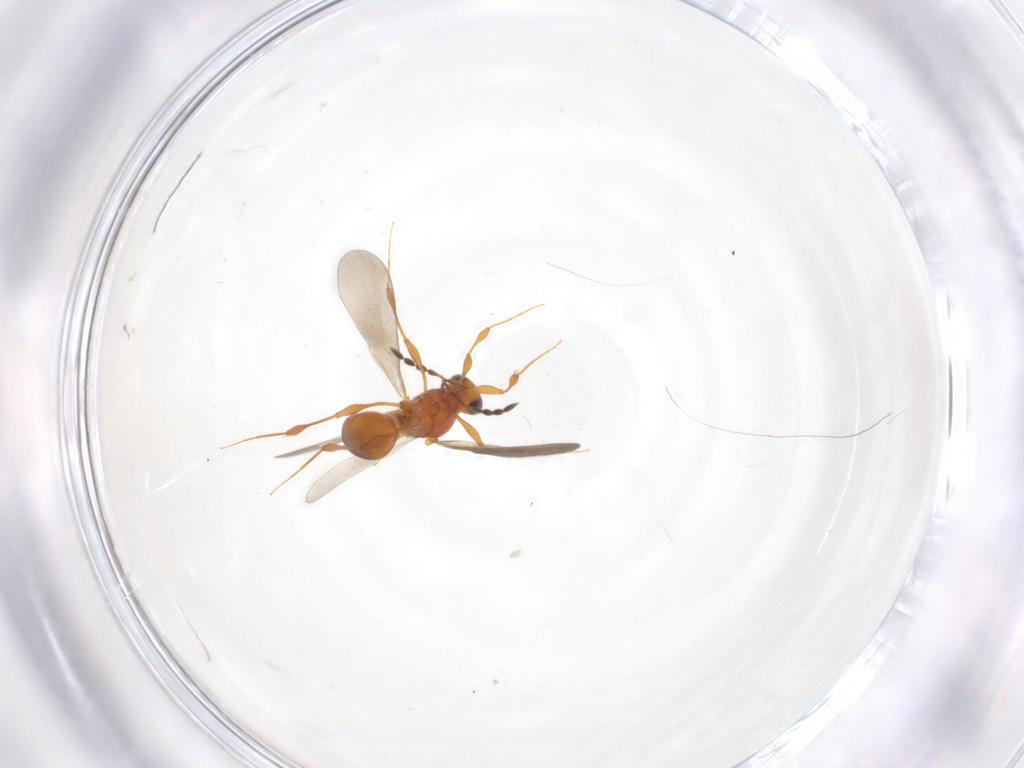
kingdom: Animalia
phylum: Arthropoda
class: Insecta
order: Hymenoptera
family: Platygastridae
